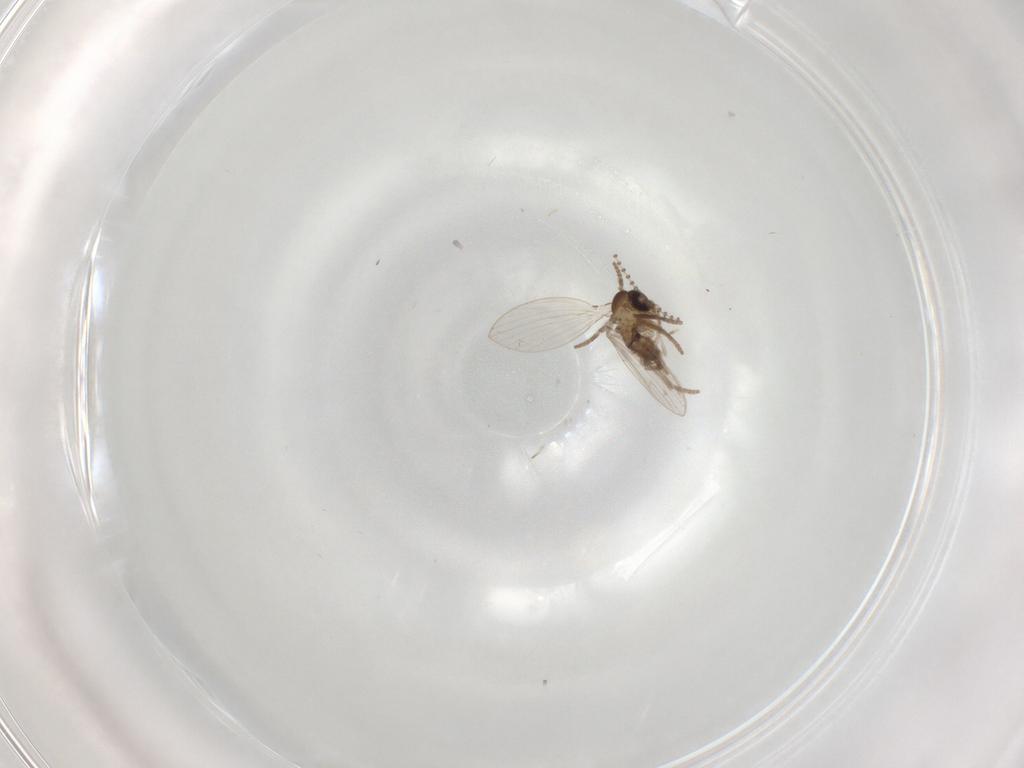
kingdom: Animalia
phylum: Arthropoda
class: Insecta
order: Diptera
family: Psychodidae
